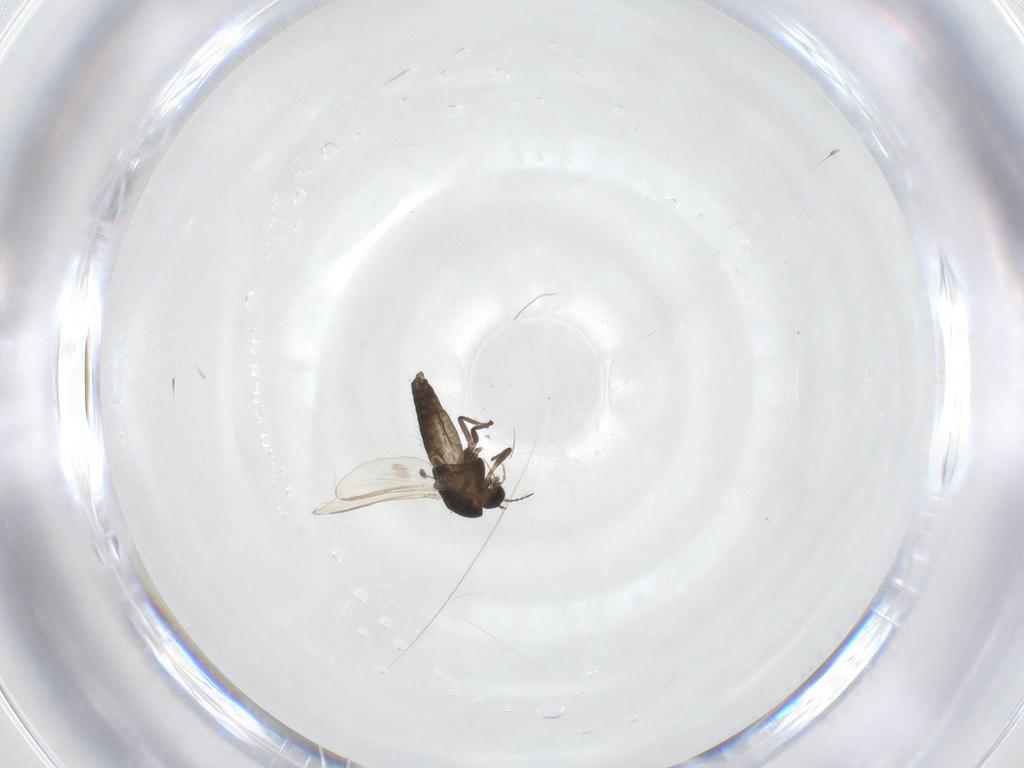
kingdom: Animalia
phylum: Arthropoda
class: Insecta
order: Diptera
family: Chironomidae
